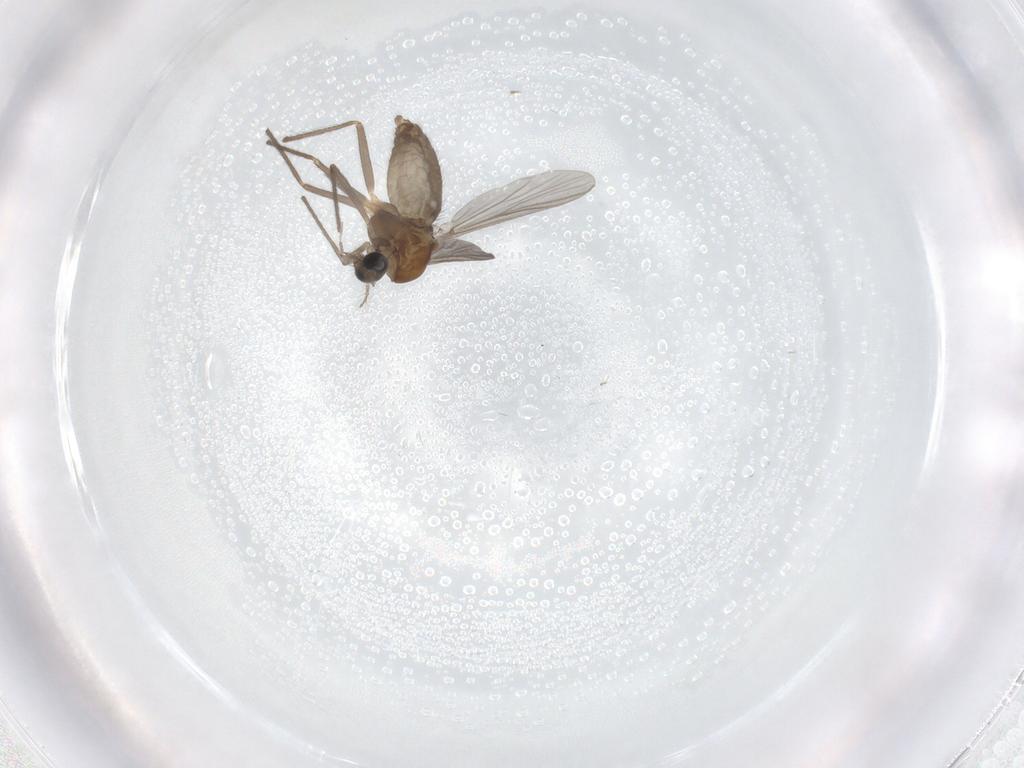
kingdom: Animalia
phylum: Arthropoda
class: Insecta
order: Diptera
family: Chironomidae
